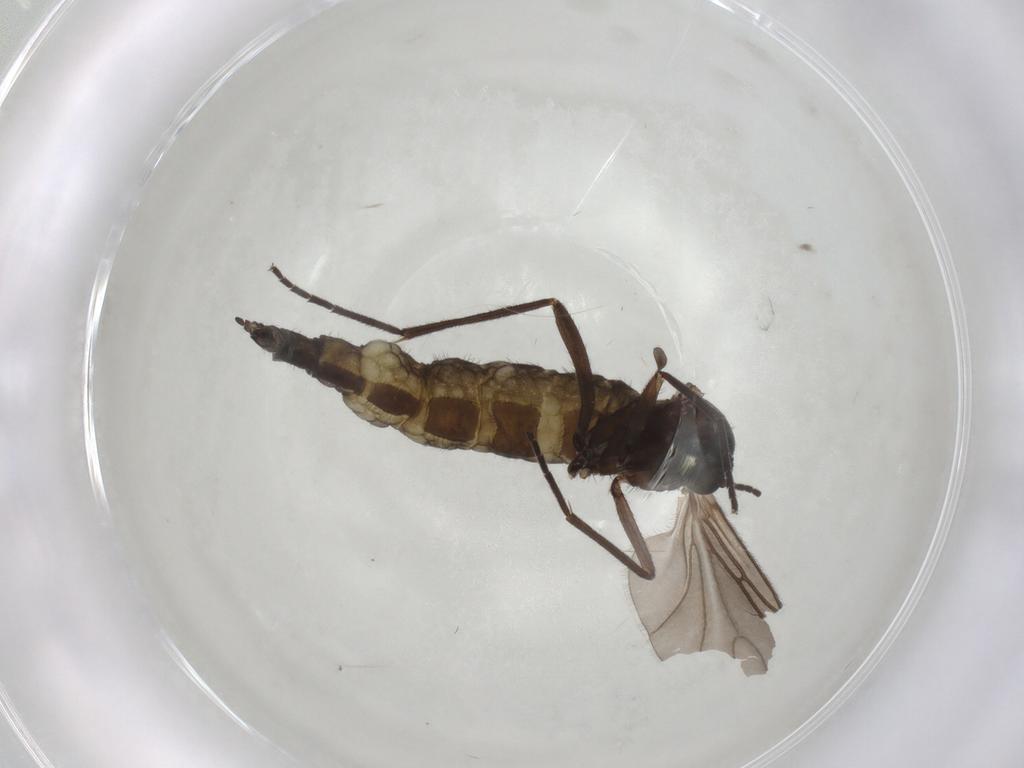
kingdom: Animalia
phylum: Arthropoda
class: Insecta
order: Diptera
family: Sciaridae
